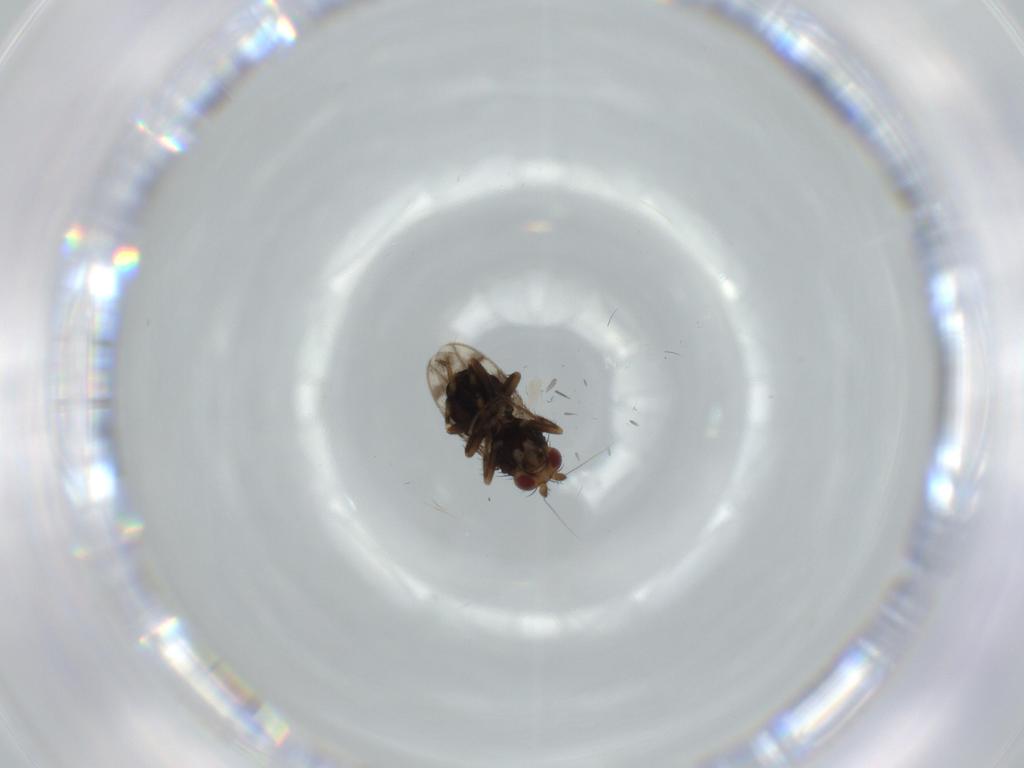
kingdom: Animalia
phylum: Arthropoda
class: Insecta
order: Diptera
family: Sphaeroceridae
